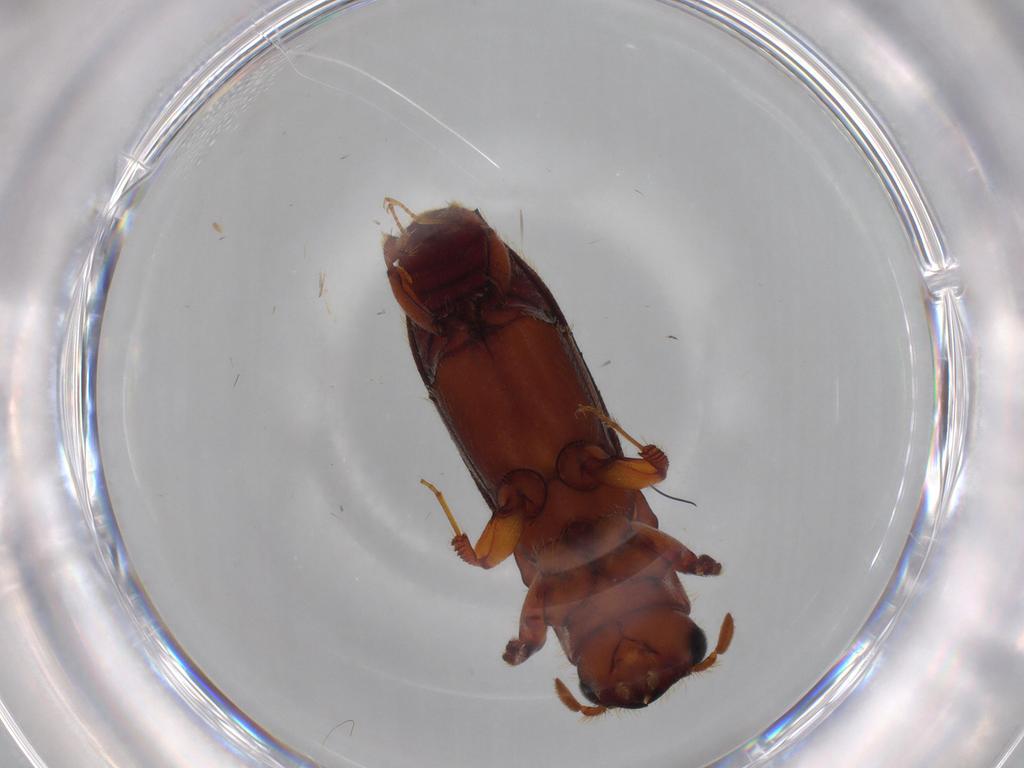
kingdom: Animalia
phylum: Arthropoda
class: Insecta
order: Coleoptera
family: Curculionidae
